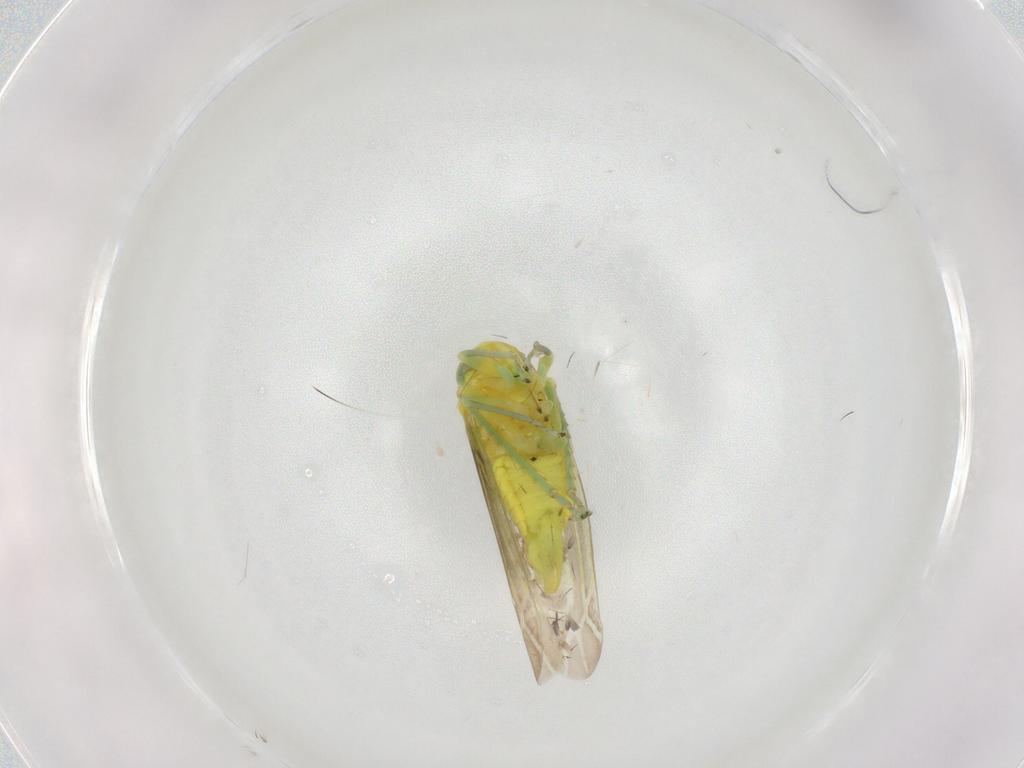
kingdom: Animalia
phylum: Arthropoda
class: Insecta
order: Hemiptera
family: Cicadellidae
